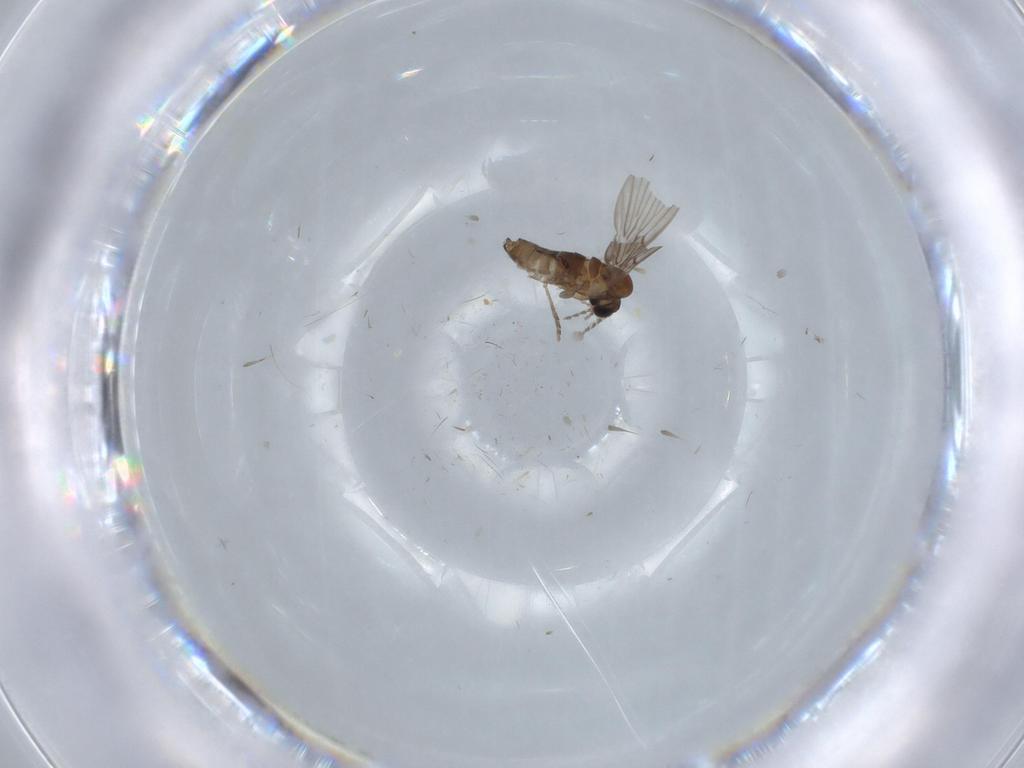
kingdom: Animalia
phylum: Arthropoda
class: Insecta
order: Diptera
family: Psychodidae
